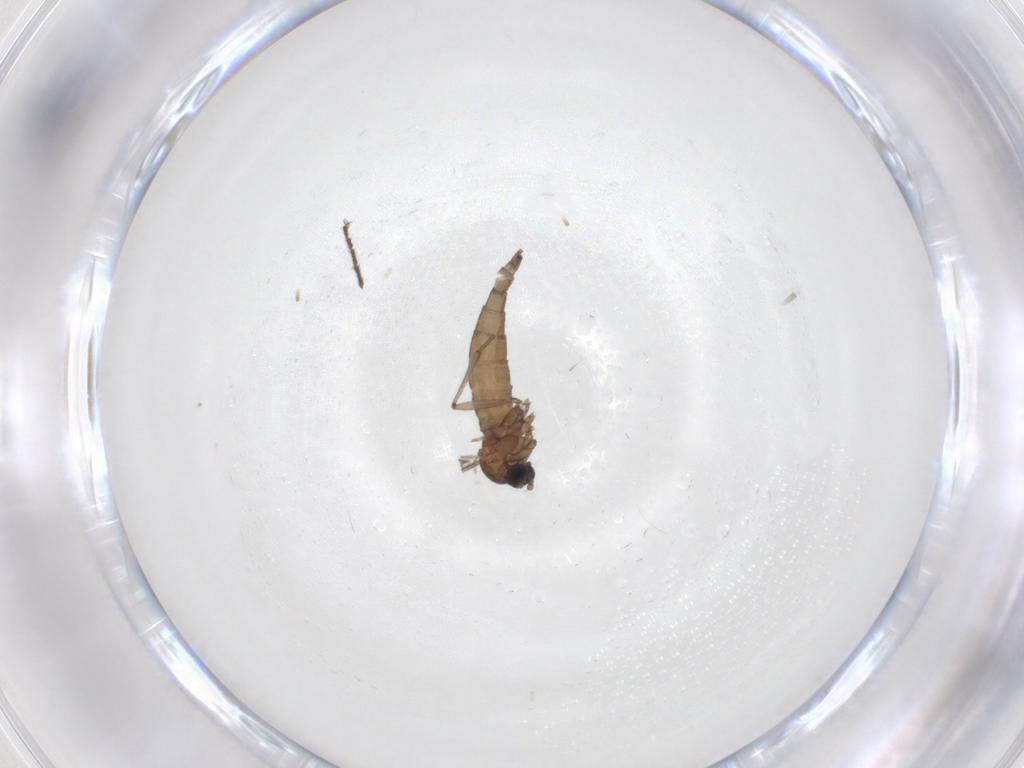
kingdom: Animalia
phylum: Arthropoda
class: Insecta
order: Diptera
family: Sciaridae
